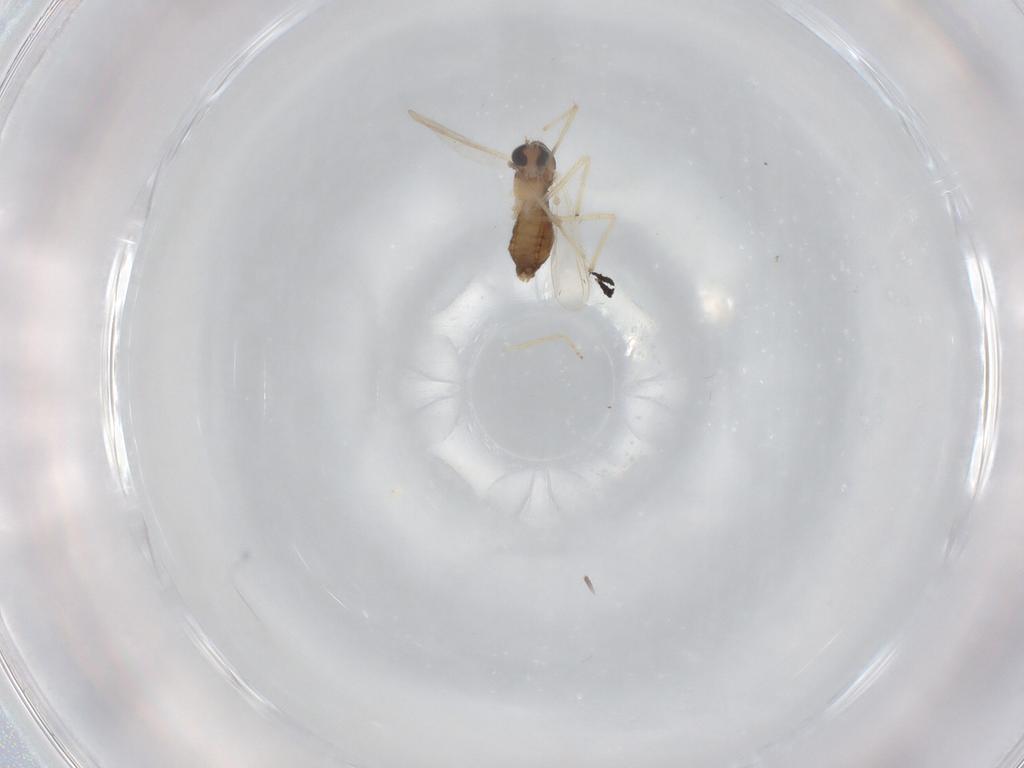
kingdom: Animalia
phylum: Arthropoda
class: Insecta
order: Diptera
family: Chironomidae
